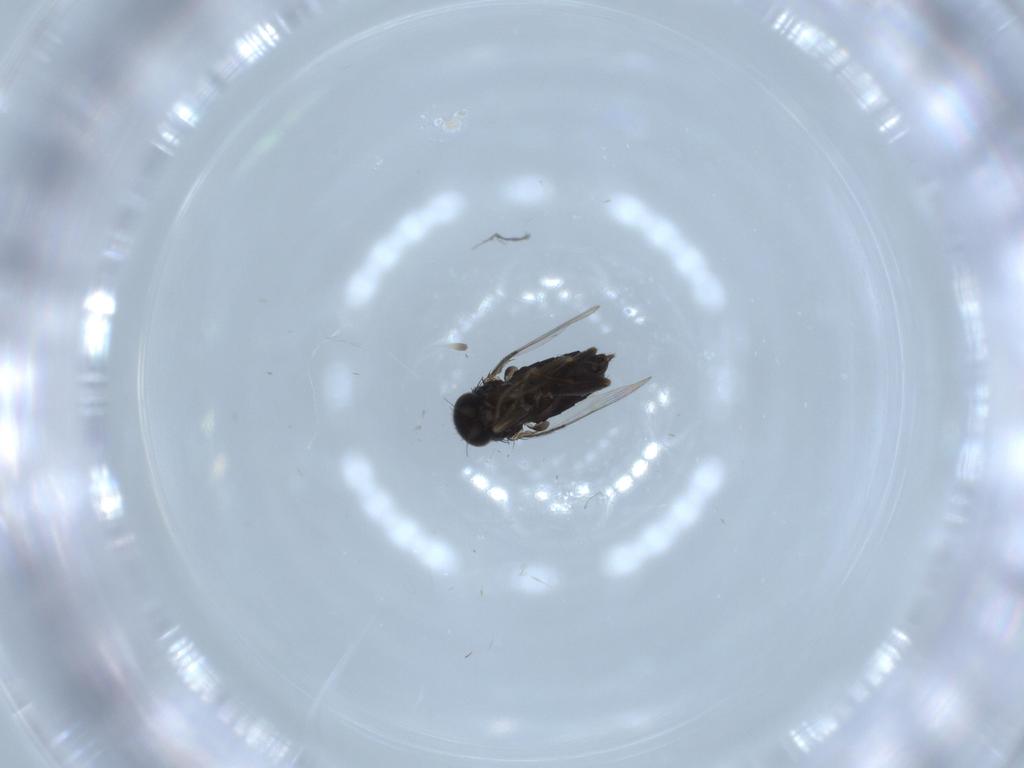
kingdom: Animalia
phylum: Arthropoda
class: Insecta
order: Diptera
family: Phoridae
